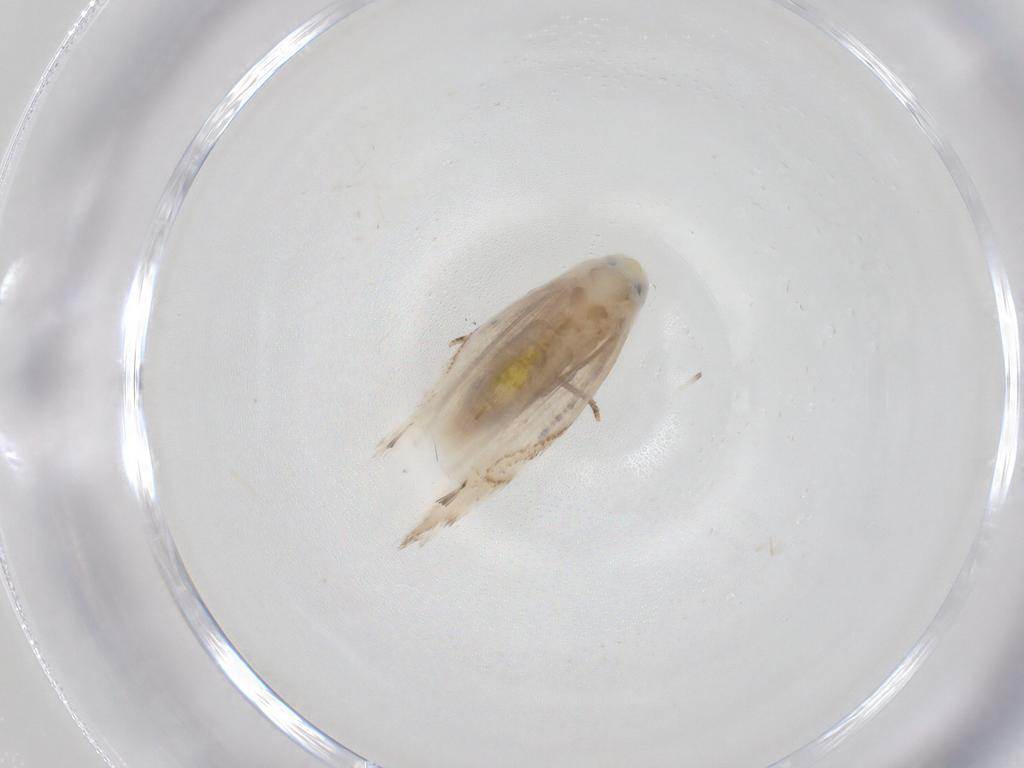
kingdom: Animalia
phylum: Arthropoda
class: Insecta
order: Lepidoptera
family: Lyonetiidae
